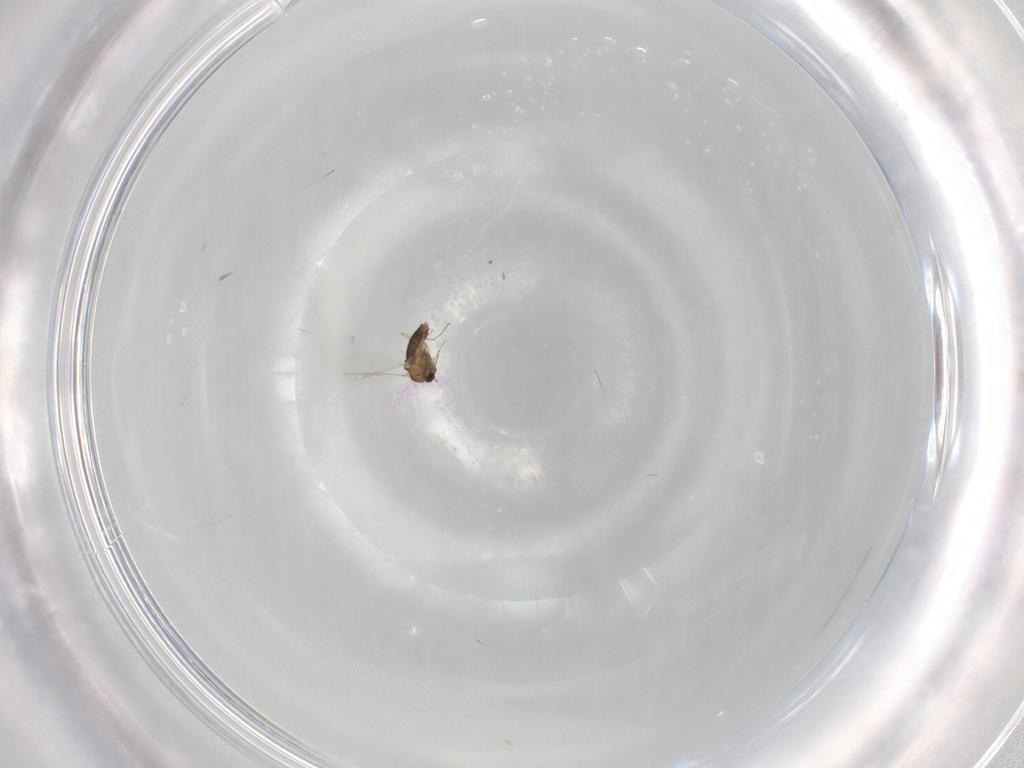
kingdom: Animalia
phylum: Arthropoda
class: Insecta
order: Diptera
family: Chironomidae
